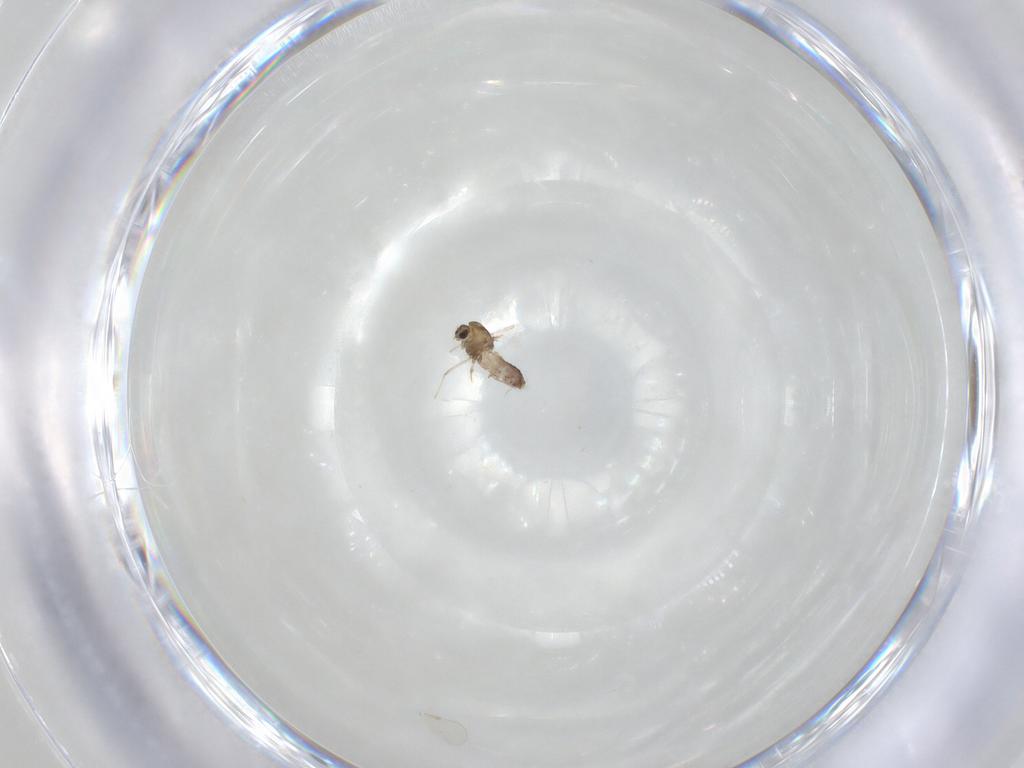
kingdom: Animalia
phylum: Arthropoda
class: Insecta
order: Diptera
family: Chironomidae
